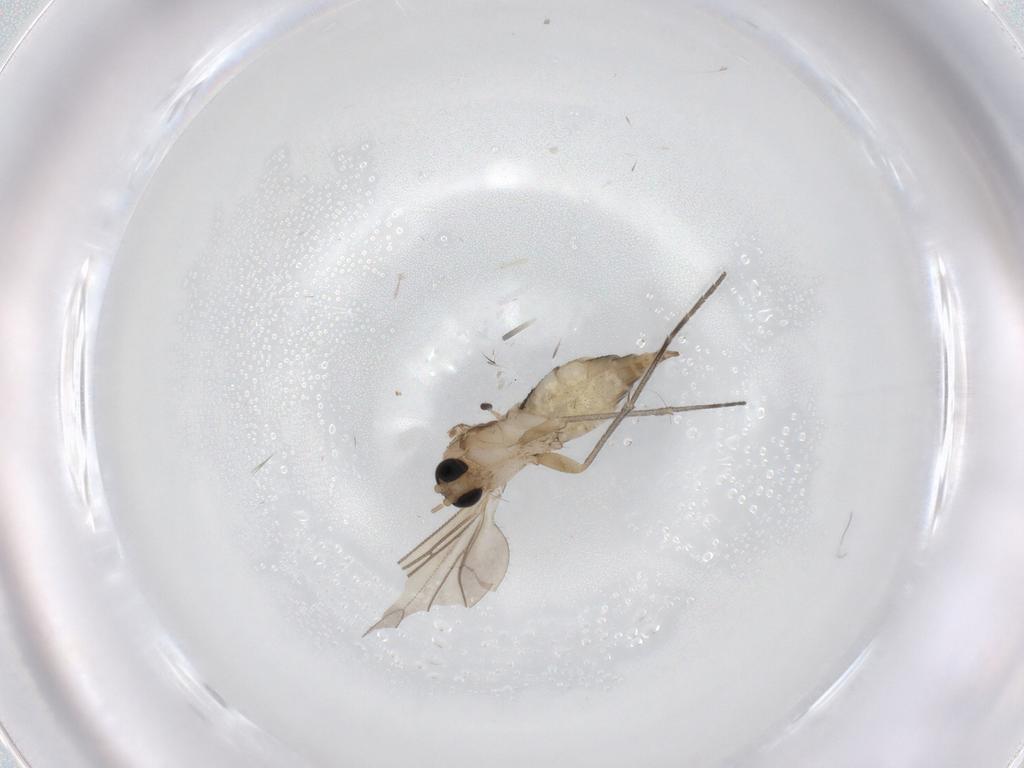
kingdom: Animalia
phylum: Arthropoda
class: Insecta
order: Diptera
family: Sciaridae
